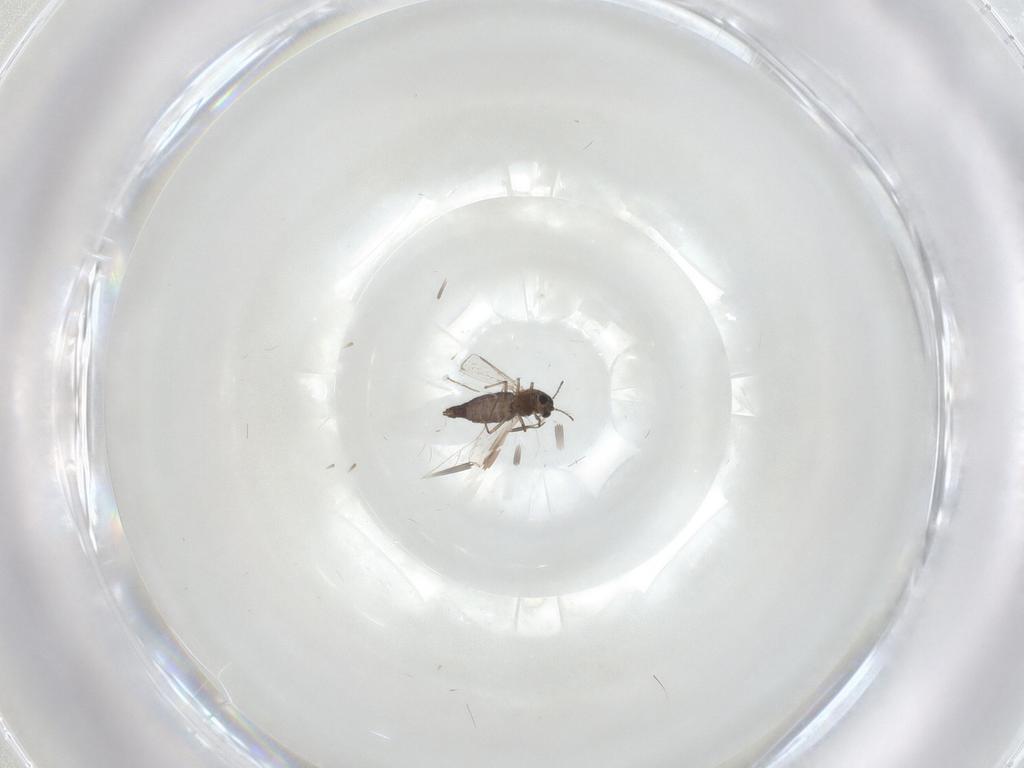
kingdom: Animalia
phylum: Arthropoda
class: Insecta
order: Diptera
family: Chironomidae
